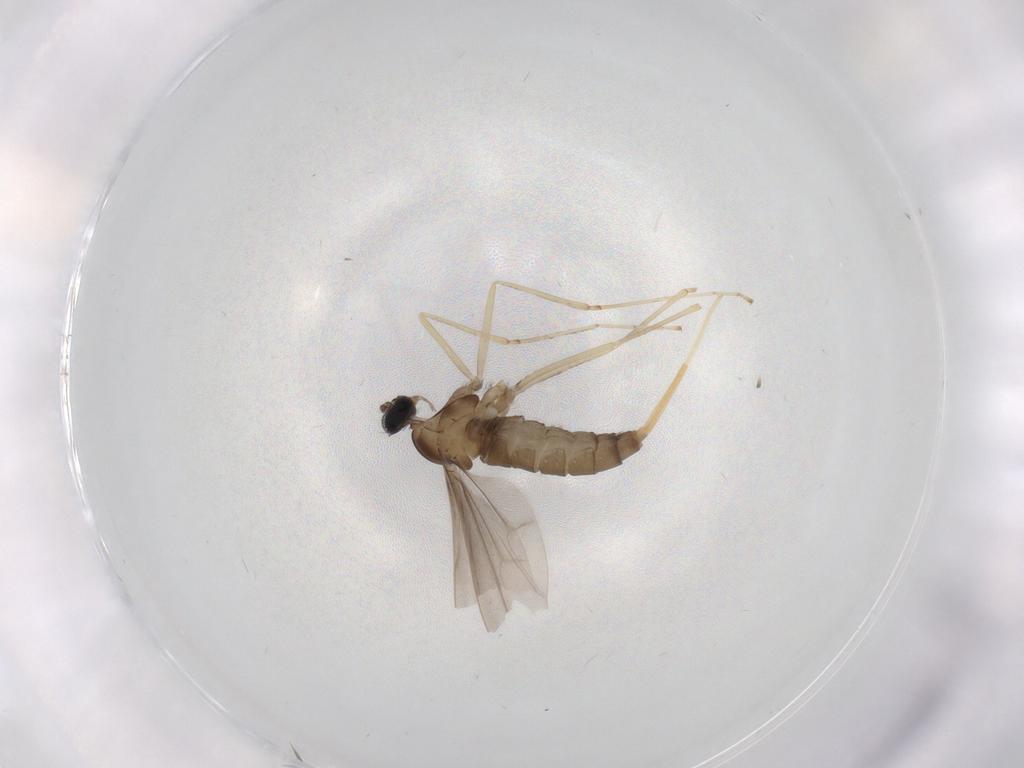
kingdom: Animalia
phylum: Arthropoda
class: Insecta
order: Diptera
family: Cecidomyiidae
